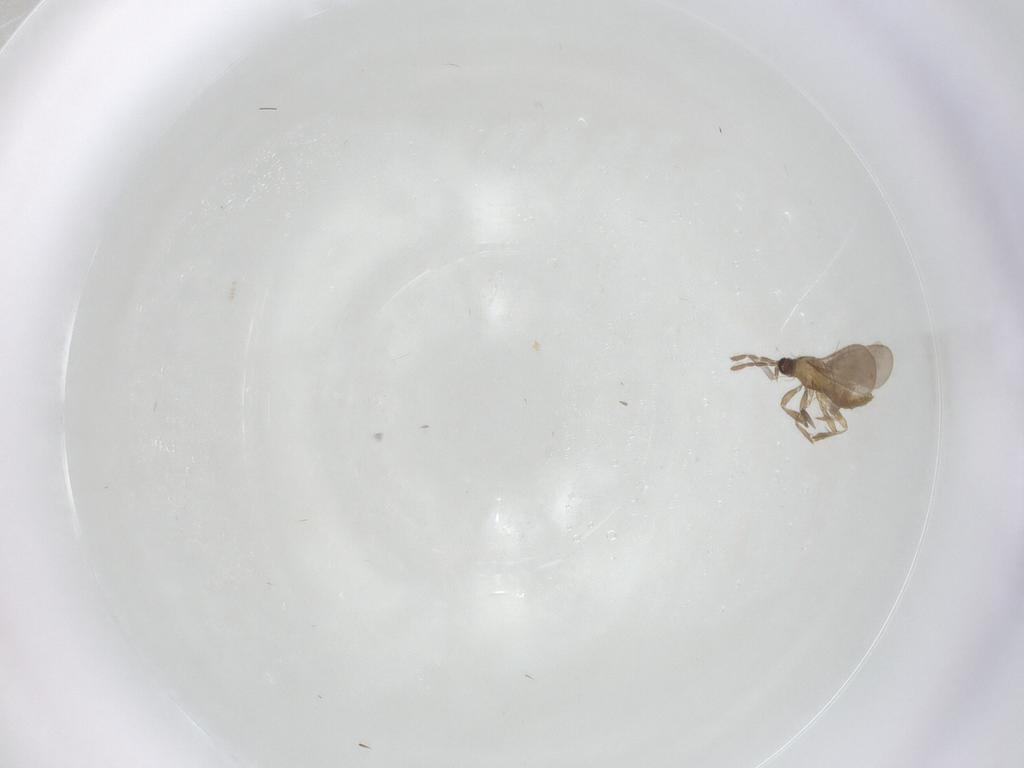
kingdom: Animalia
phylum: Arthropoda
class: Insecta
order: Hemiptera
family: Cercopidae
